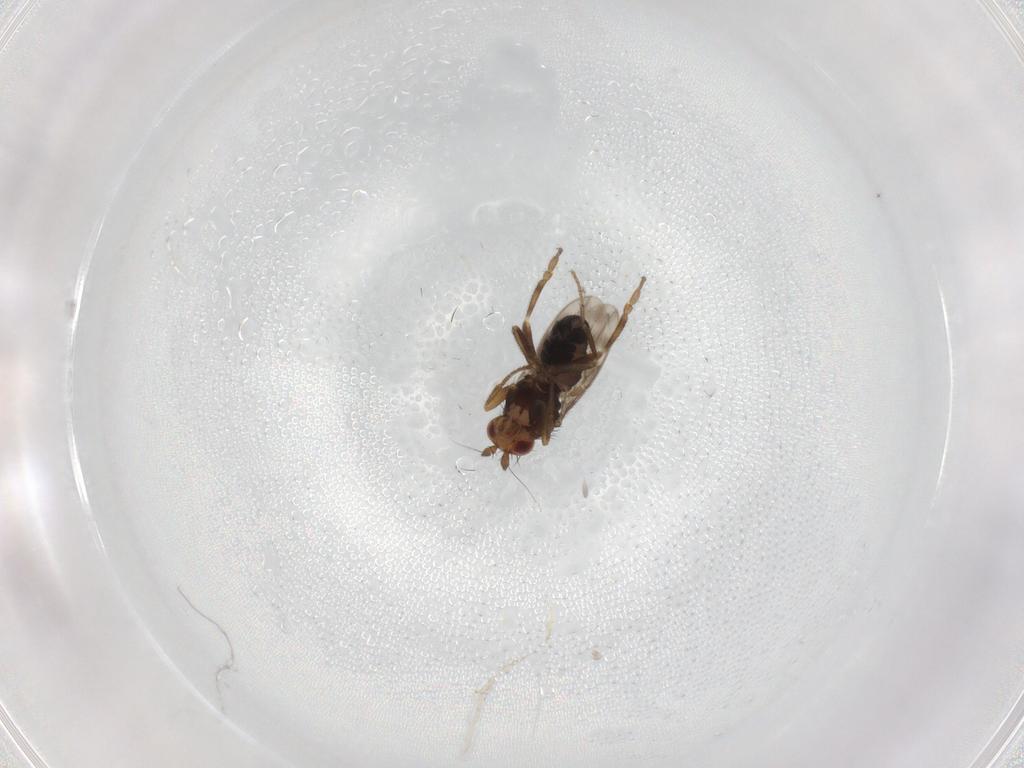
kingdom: Animalia
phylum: Arthropoda
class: Insecta
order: Diptera
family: Sphaeroceridae
